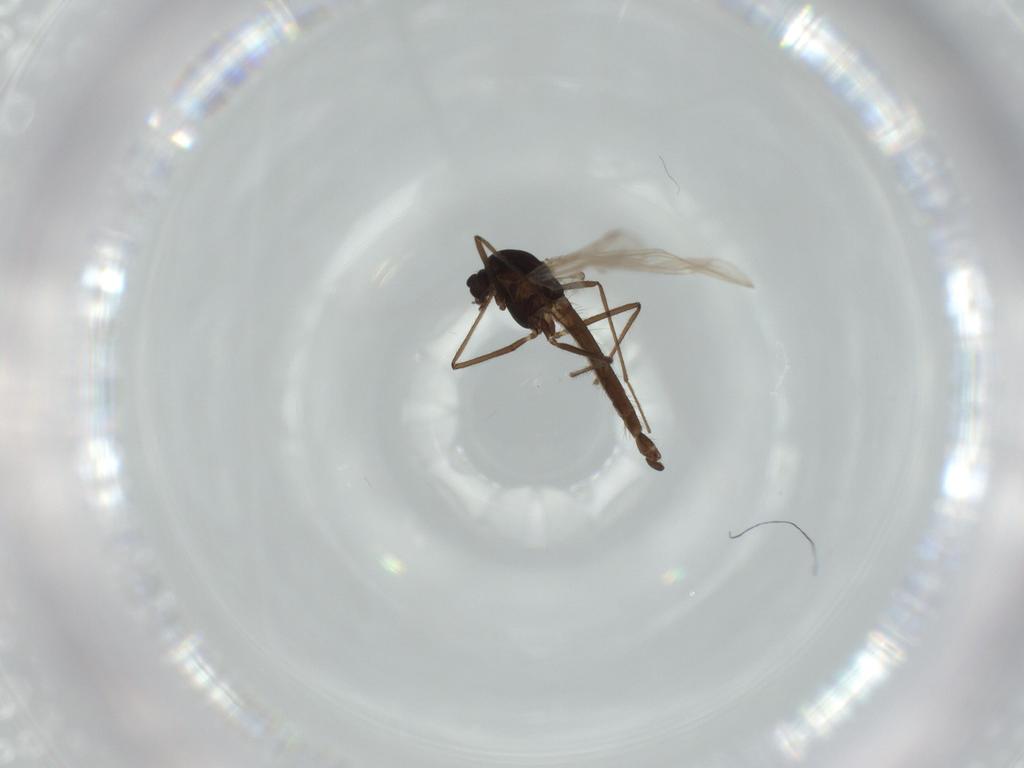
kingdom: Animalia
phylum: Arthropoda
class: Insecta
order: Diptera
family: Chironomidae
